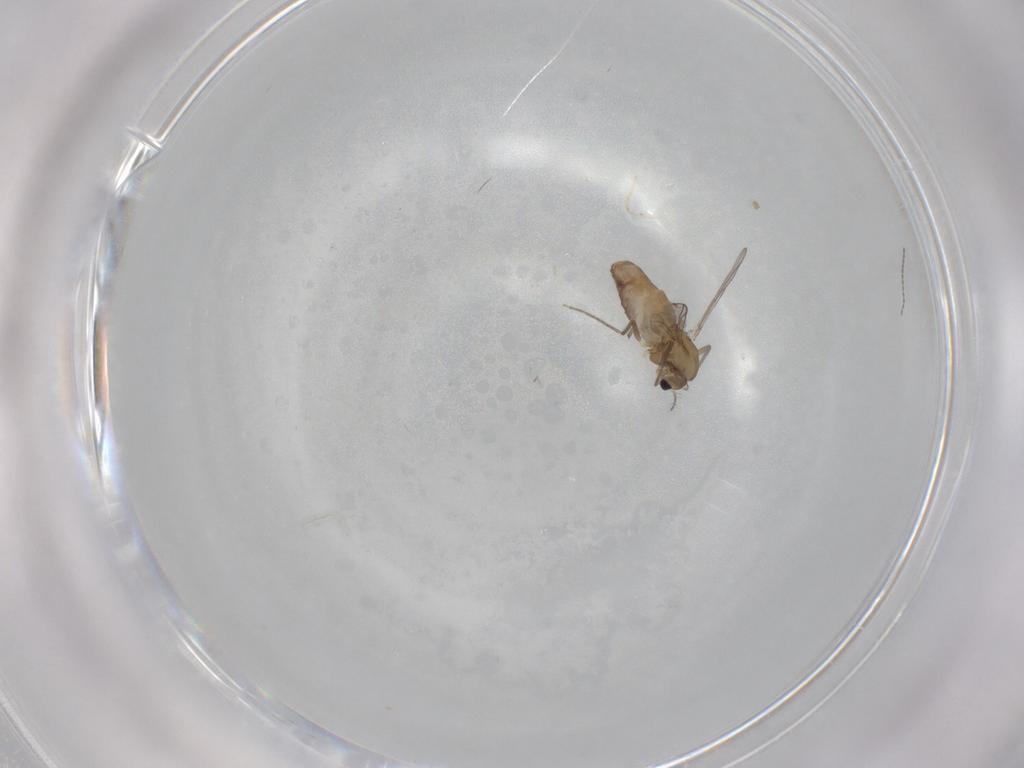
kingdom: Animalia
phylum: Arthropoda
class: Insecta
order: Diptera
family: Chironomidae
